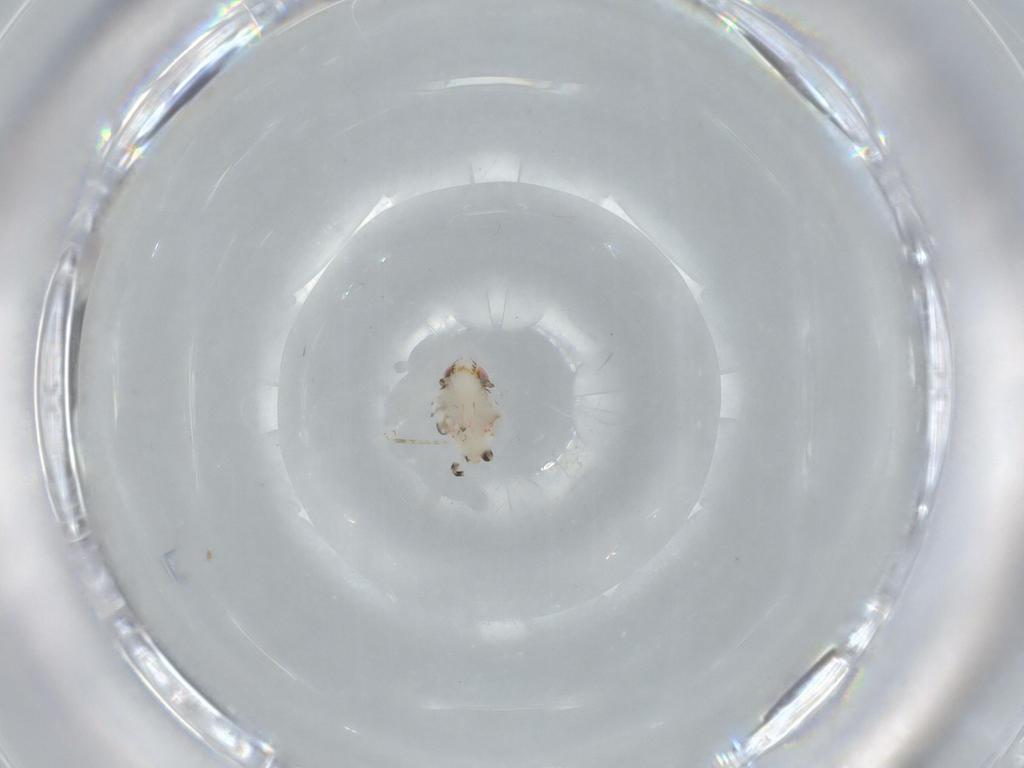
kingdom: Animalia
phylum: Arthropoda
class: Insecta
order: Hemiptera
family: Nogodinidae
